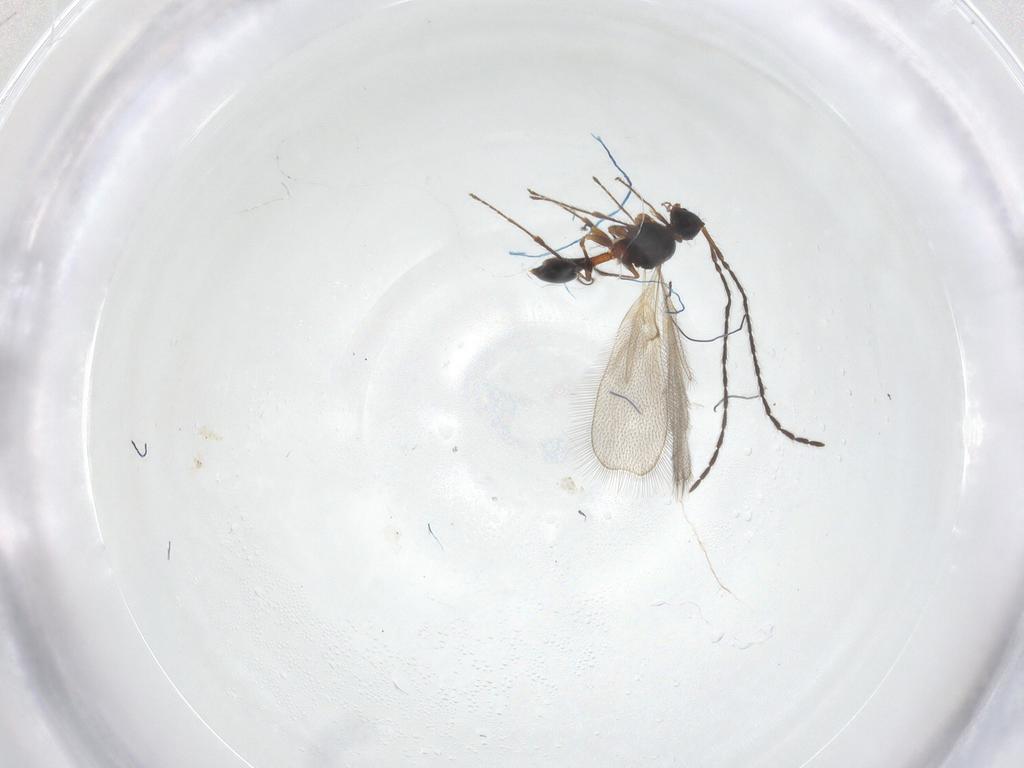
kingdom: Animalia
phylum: Arthropoda
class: Insecta
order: Hymenoptera
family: Diapriidae
